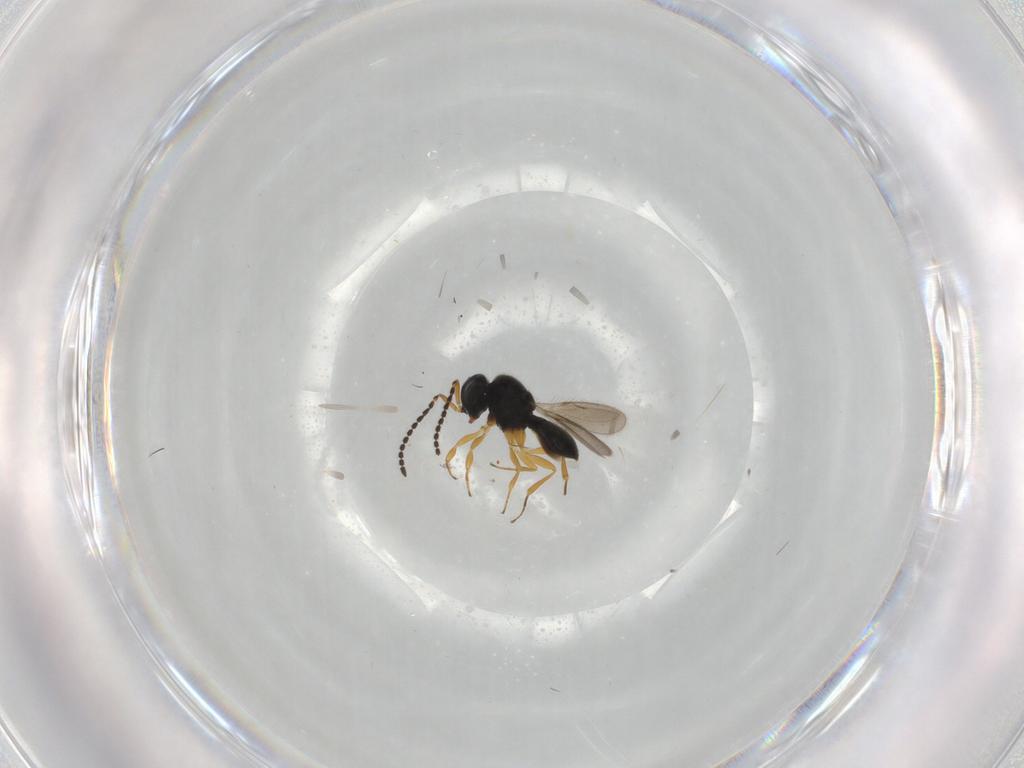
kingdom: Animalia
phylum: Arthropoda
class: Insecta
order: Hymenoptera
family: Scelionidae
